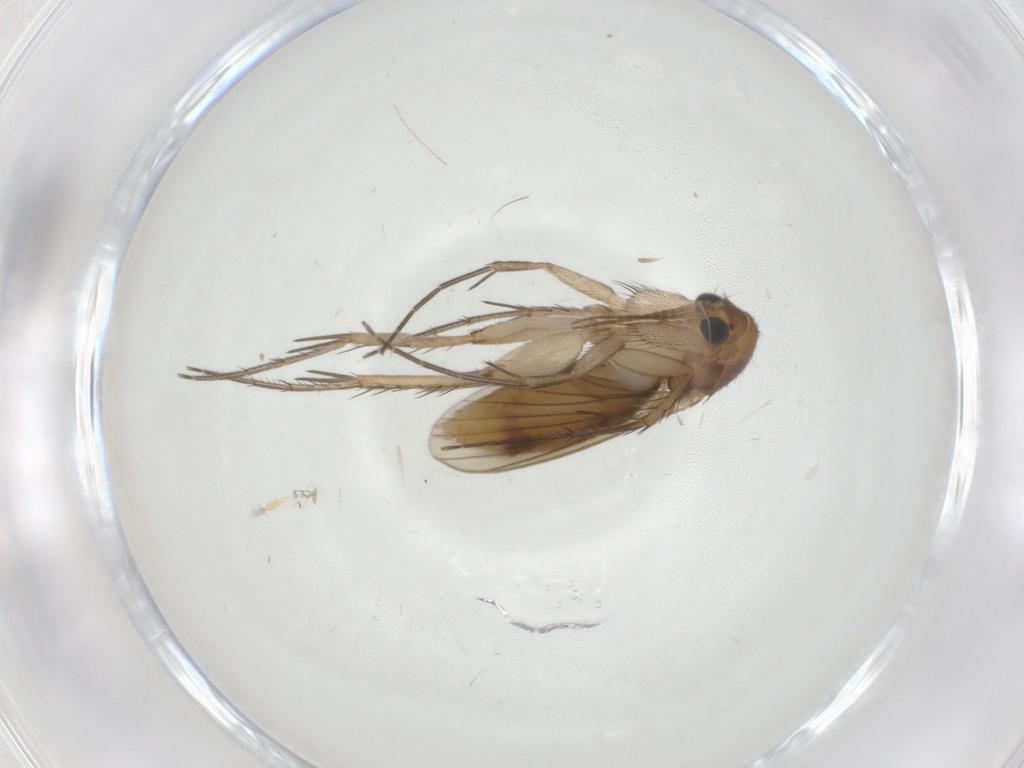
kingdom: Animalia
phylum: Arthropoda
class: Insecta
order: Diptera
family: Mycetophilidae
